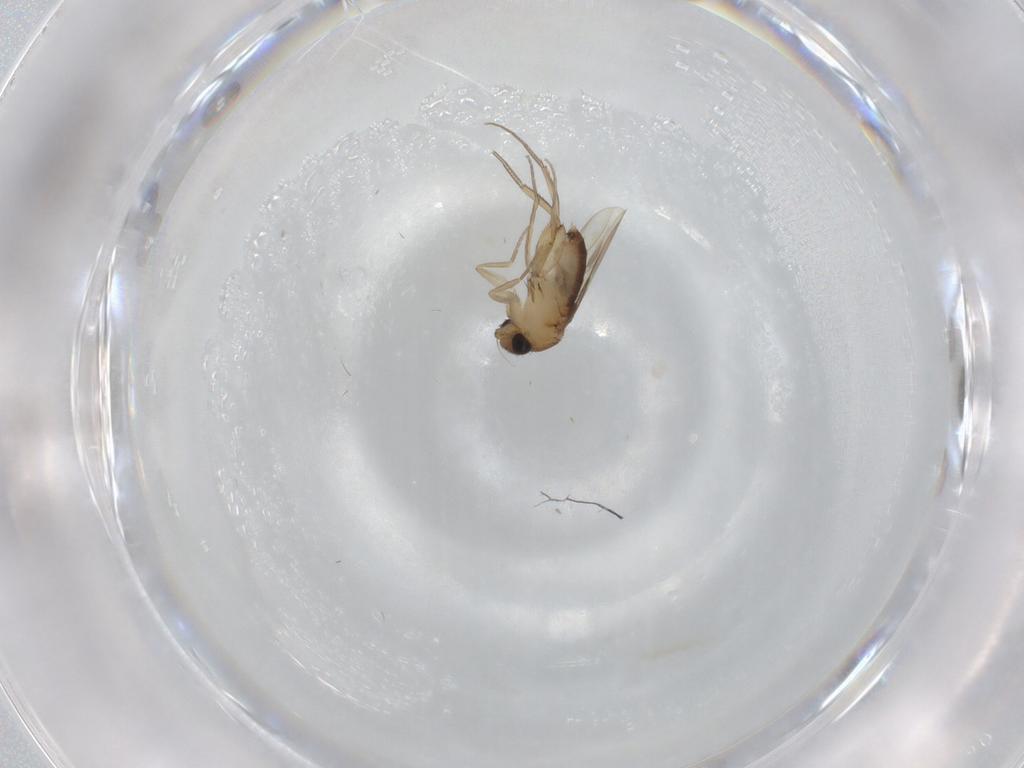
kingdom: Animalia
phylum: Arthropoda
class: Insecta
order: Diptera
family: Phoridae
